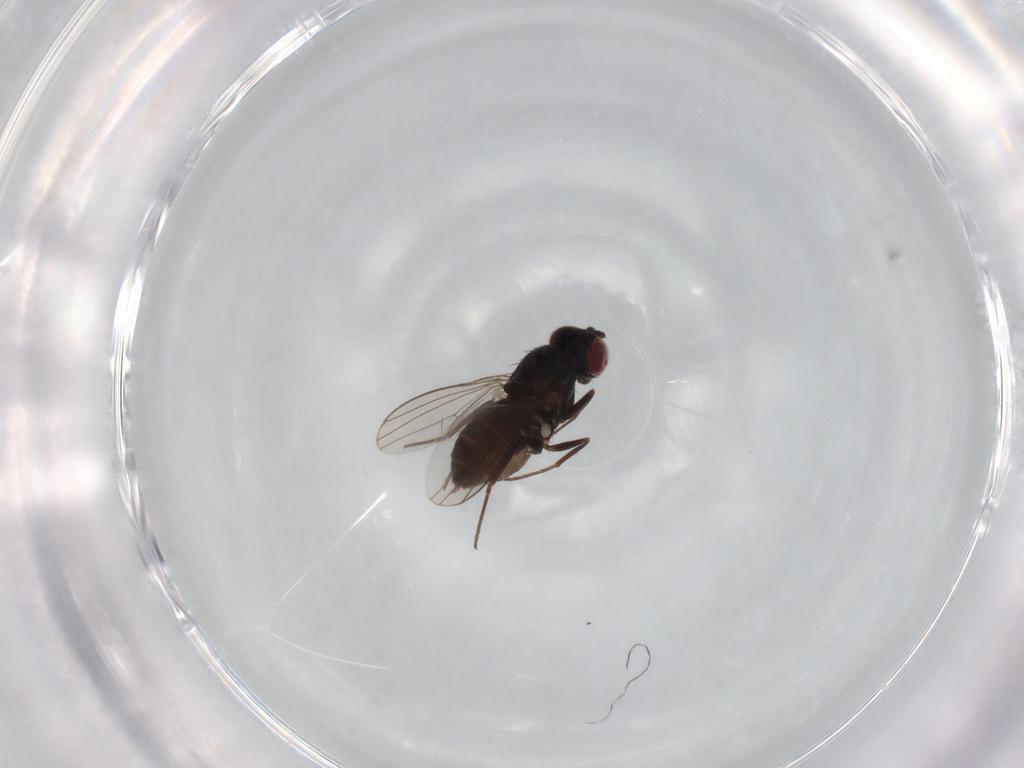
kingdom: Animalia
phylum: Arthropoda
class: Insecta
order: Diptera
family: Dolichopodidae
